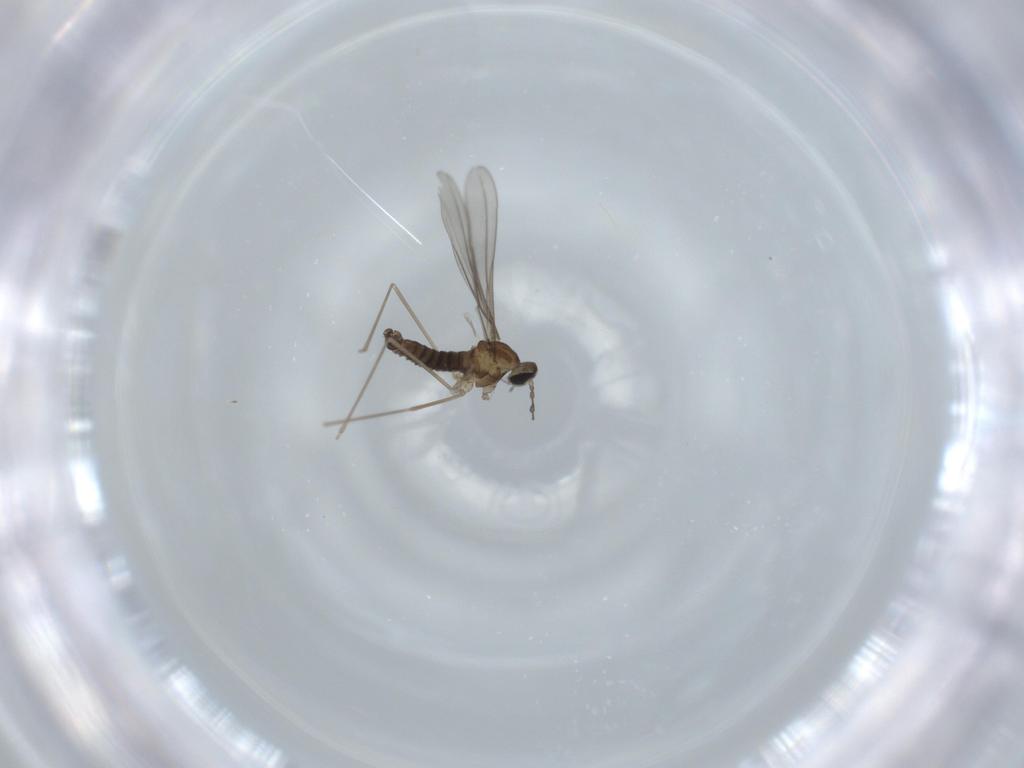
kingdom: Animalia
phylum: Arthropoda
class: Insecta
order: Diptera
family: Cecidomyiidae
